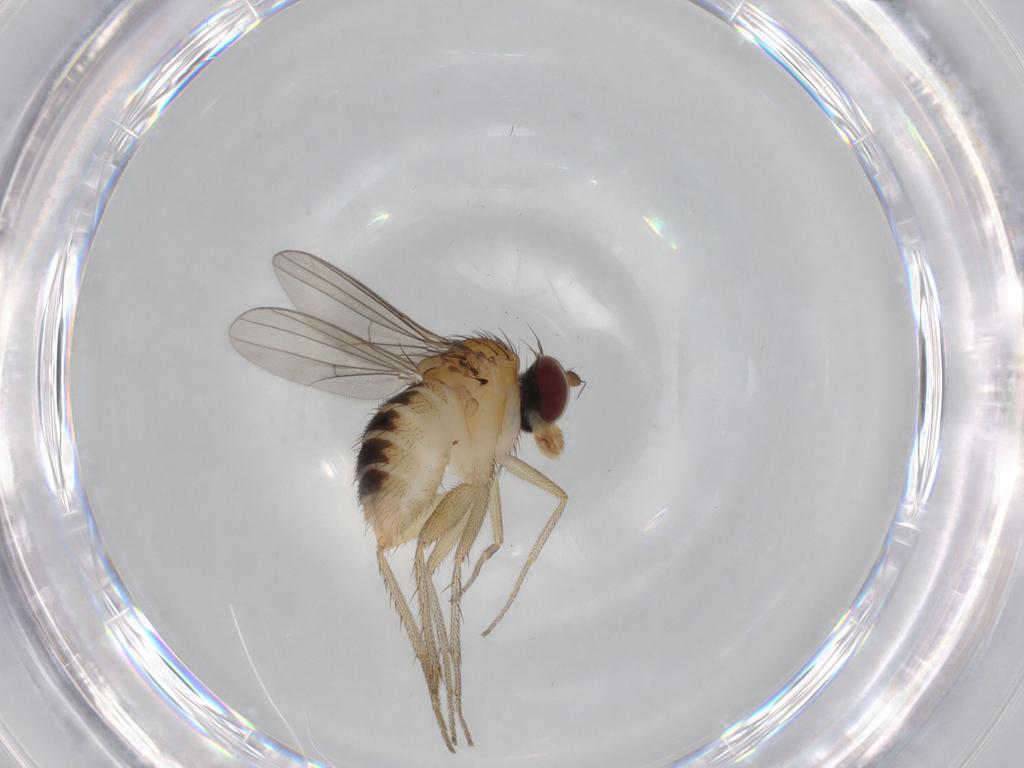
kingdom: Animalia
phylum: Arthropoda
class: Insecta
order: Diptera
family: Dolichopodidae
